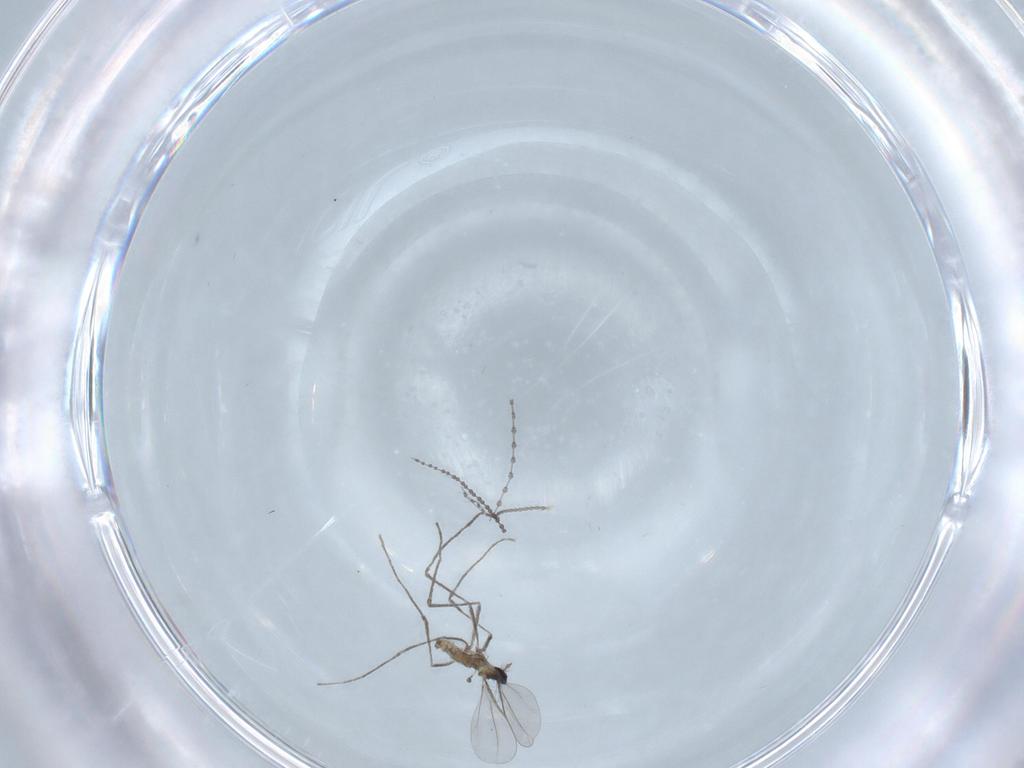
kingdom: Animalia
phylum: Arthropoda
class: Insecta
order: Diptera
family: Cecidomyiidae
